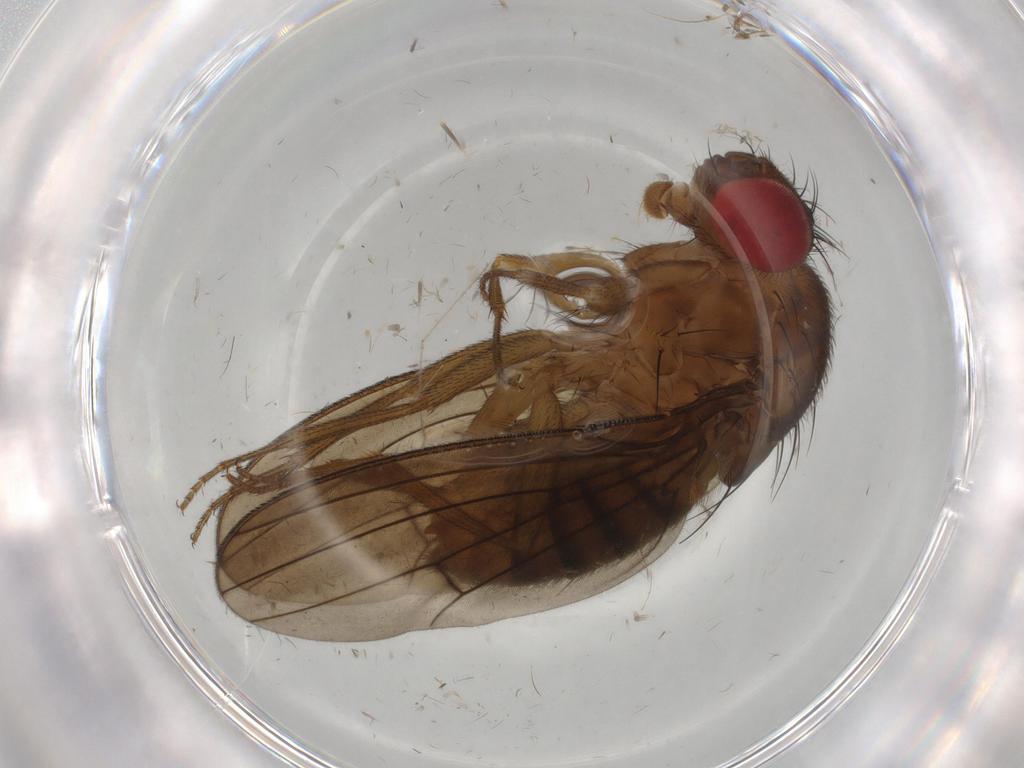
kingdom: Animalia
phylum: Arthropoda
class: Insecta
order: Diptera
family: Drosophilidae
